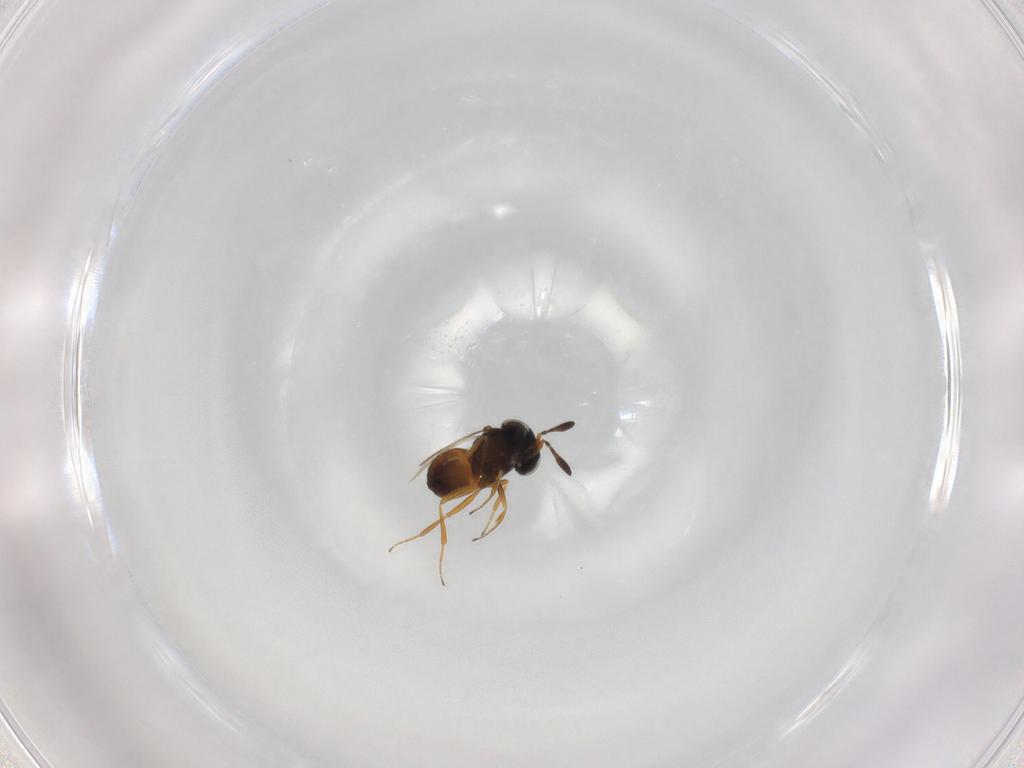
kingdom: Animalia
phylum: Arthropoda
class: Insecta
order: Hymenoptera
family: Scelionidae
